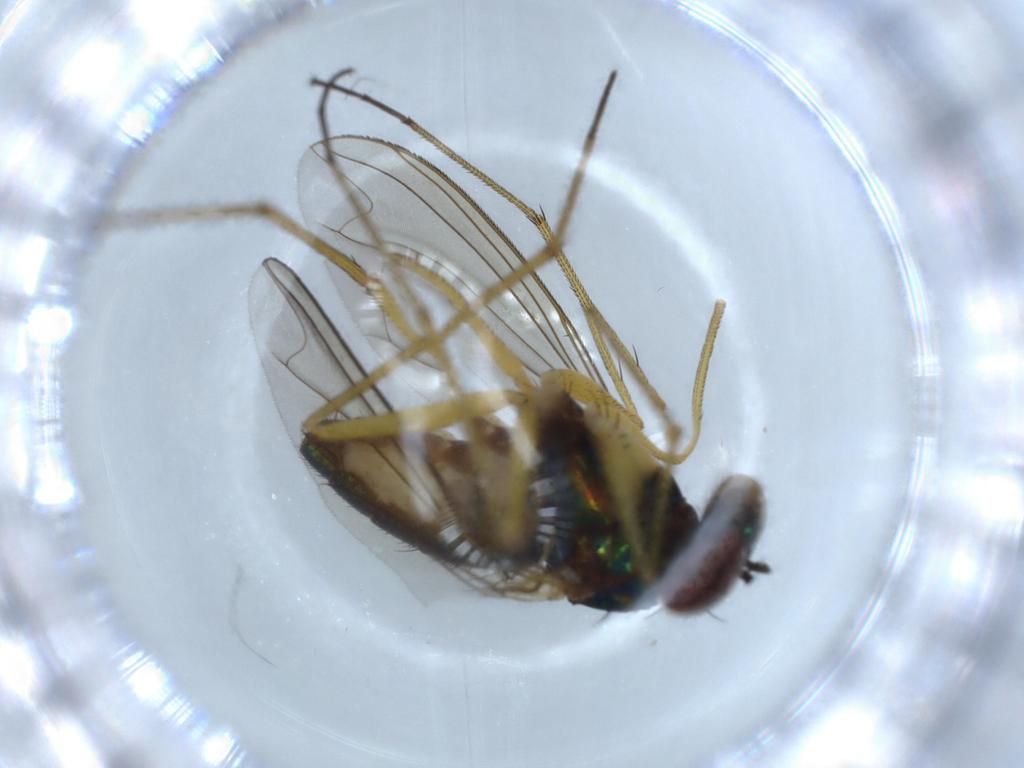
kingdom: Animalia
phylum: Arthropoda
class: Insecta
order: Diptera
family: Dolichopodidae
